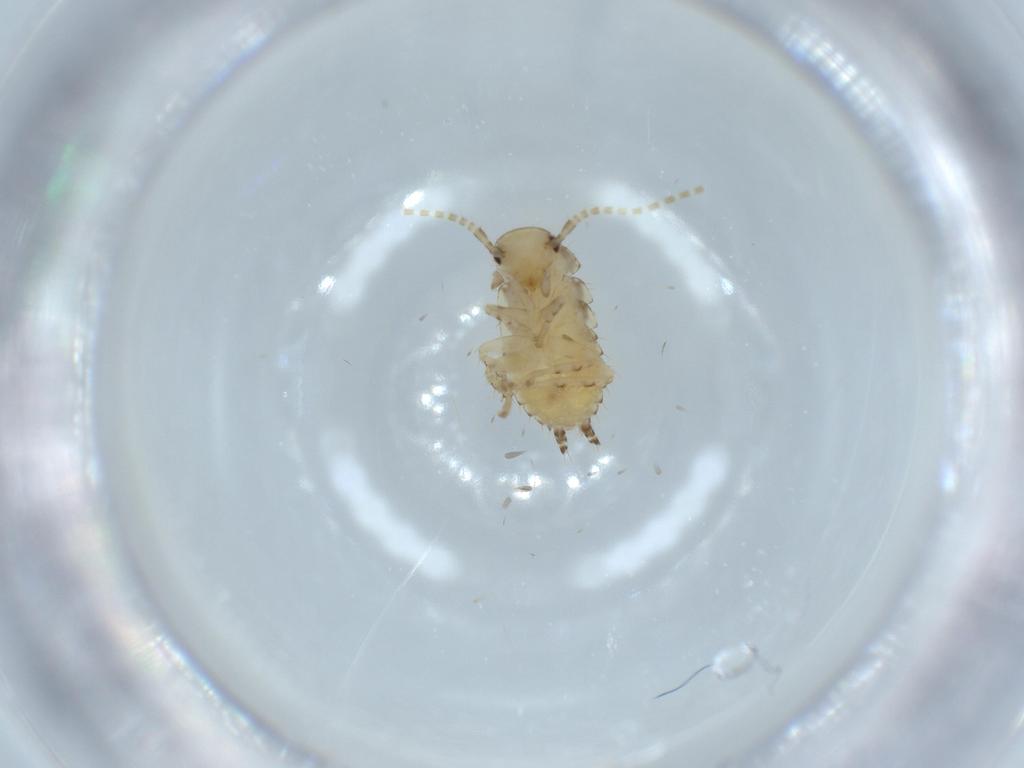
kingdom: Animalia
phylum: Arthropoda
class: Insecta
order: Blattodea
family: Ectobiidae
